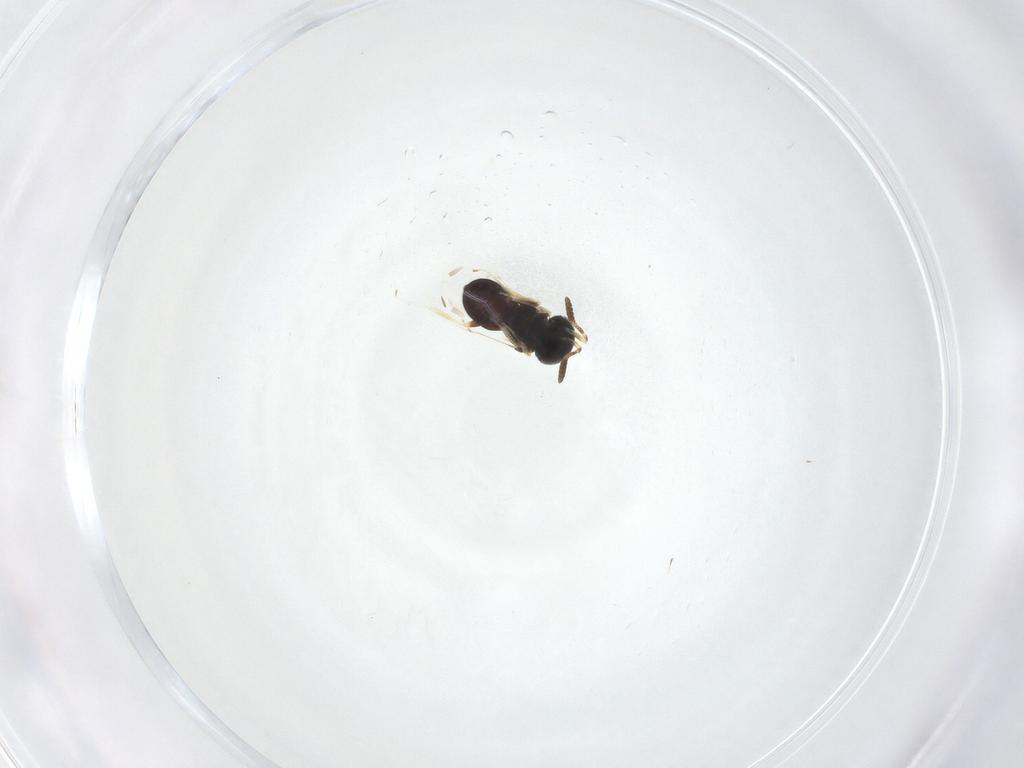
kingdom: Animalia
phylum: Arthropoda
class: Insecta
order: Hymenoptera
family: Scelionidae
